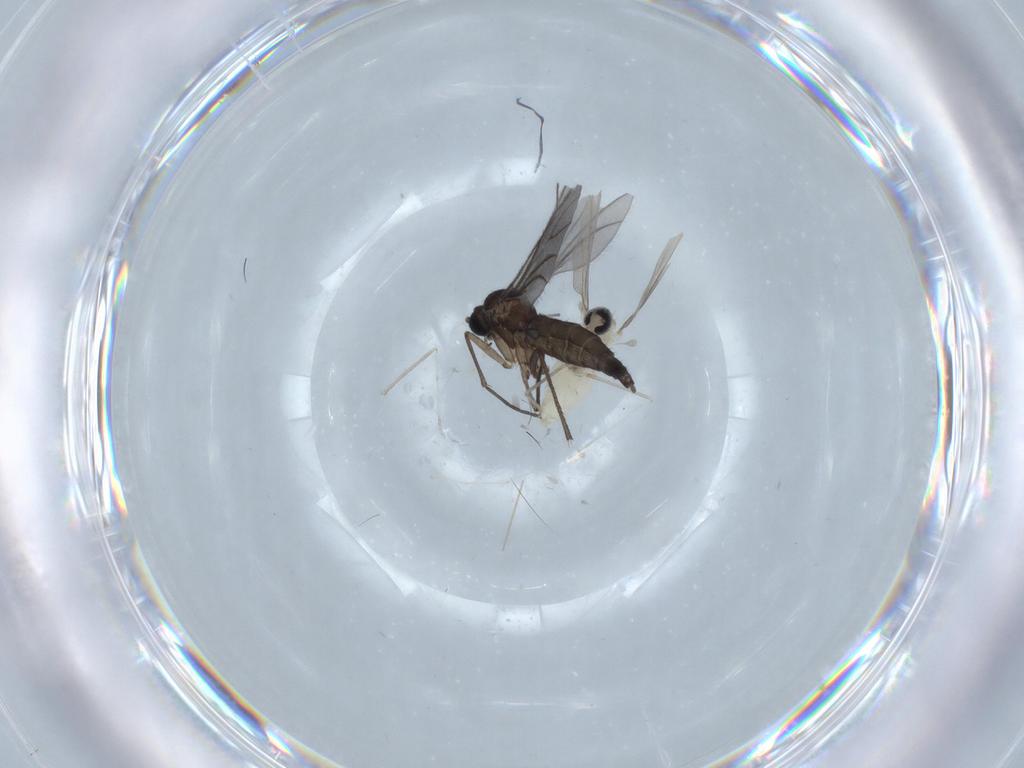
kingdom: Animalia
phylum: Arthropoda
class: Insecta
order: Diptera
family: Sciaridae
